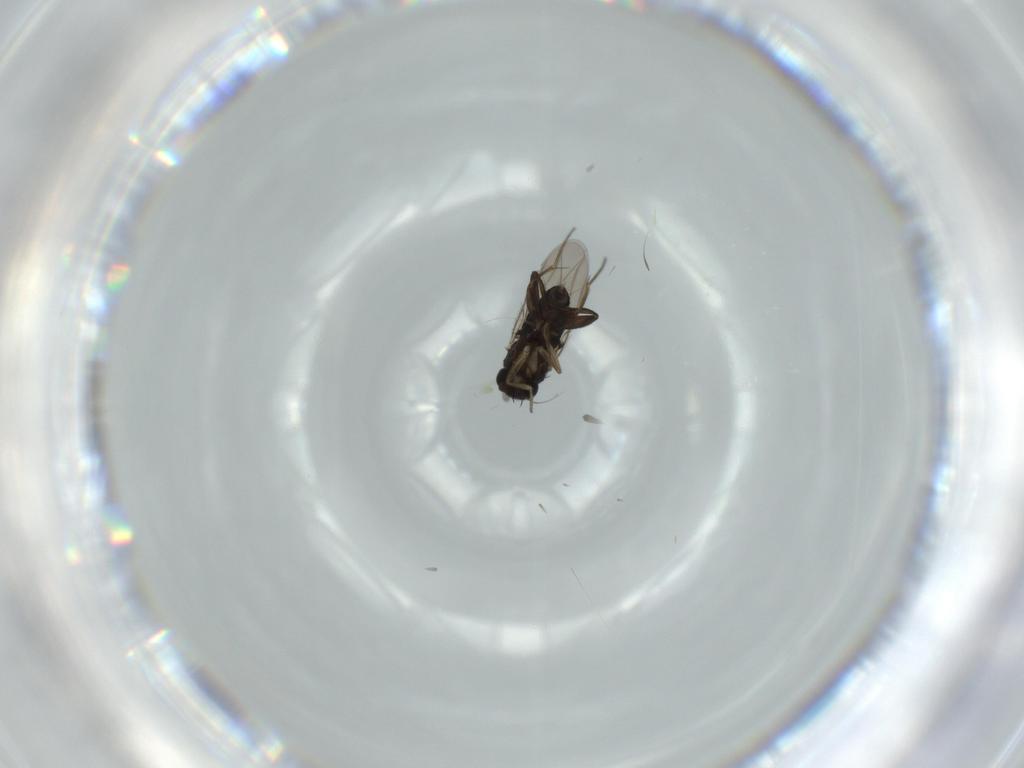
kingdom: Animalia
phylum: Arthropoda
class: Insecta
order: Diptera
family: Phoridae
